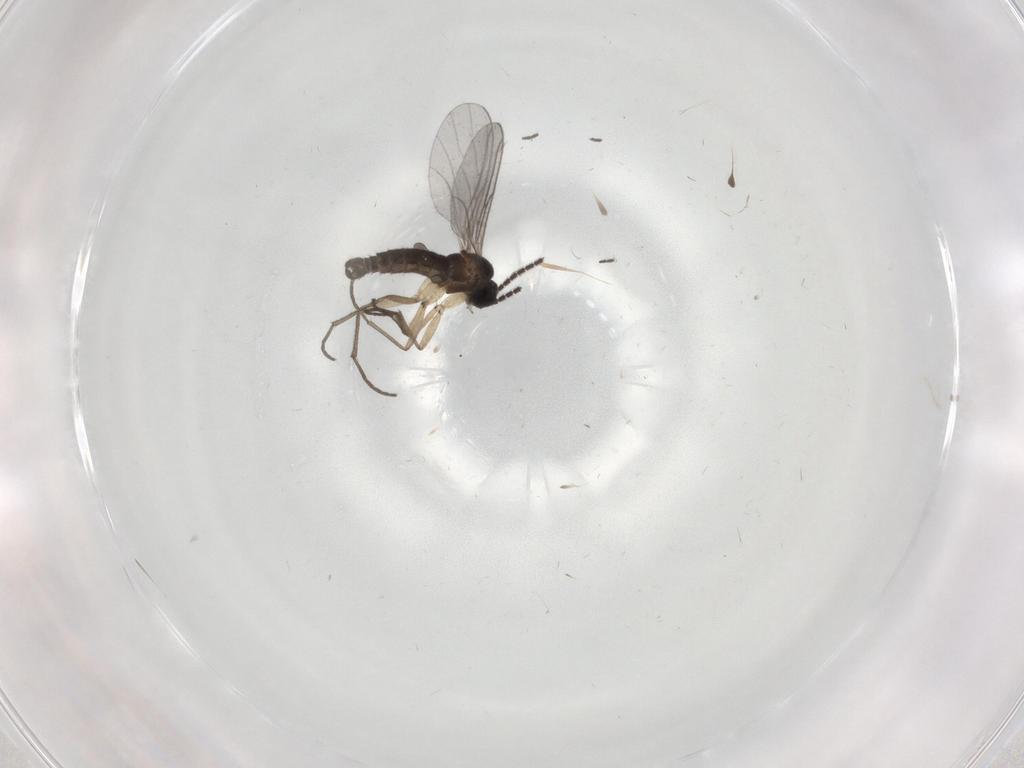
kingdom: Animalia
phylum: Arthropoda
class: Insecta
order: Diptera
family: Sciaridae
